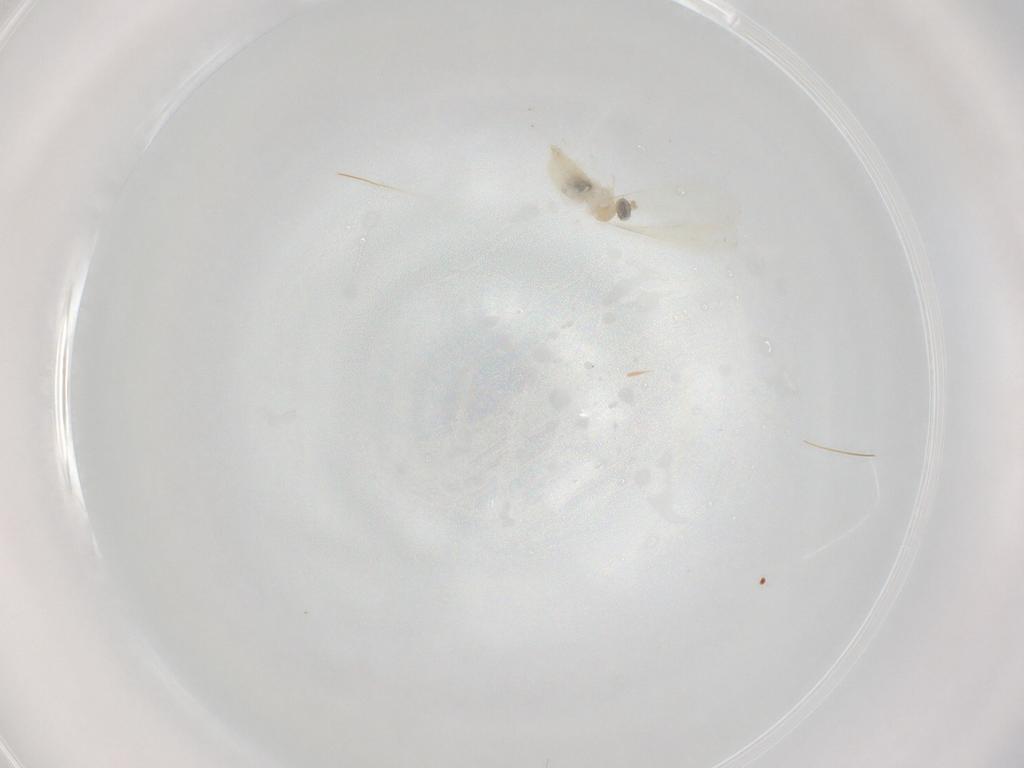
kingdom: Animalia
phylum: Arthropoda
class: Insecta
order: Diptera
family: Cecidomyiidae
